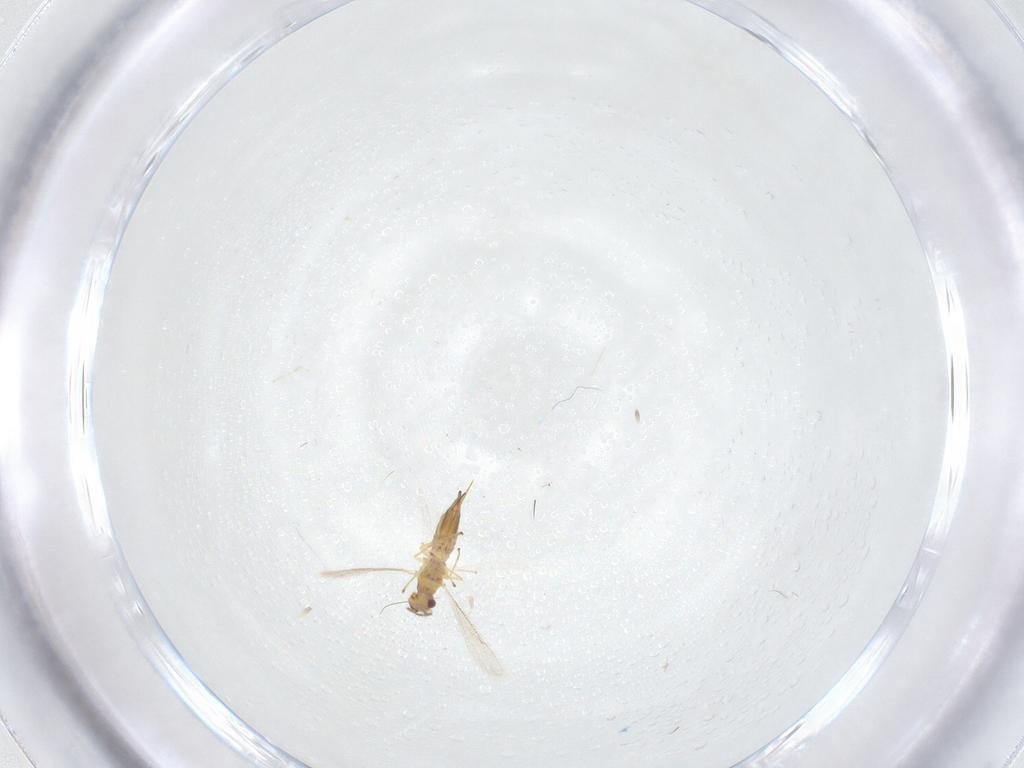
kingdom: Animalia
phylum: Arthropoda
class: Insecta
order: Hymenoptera
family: Eulophidae
